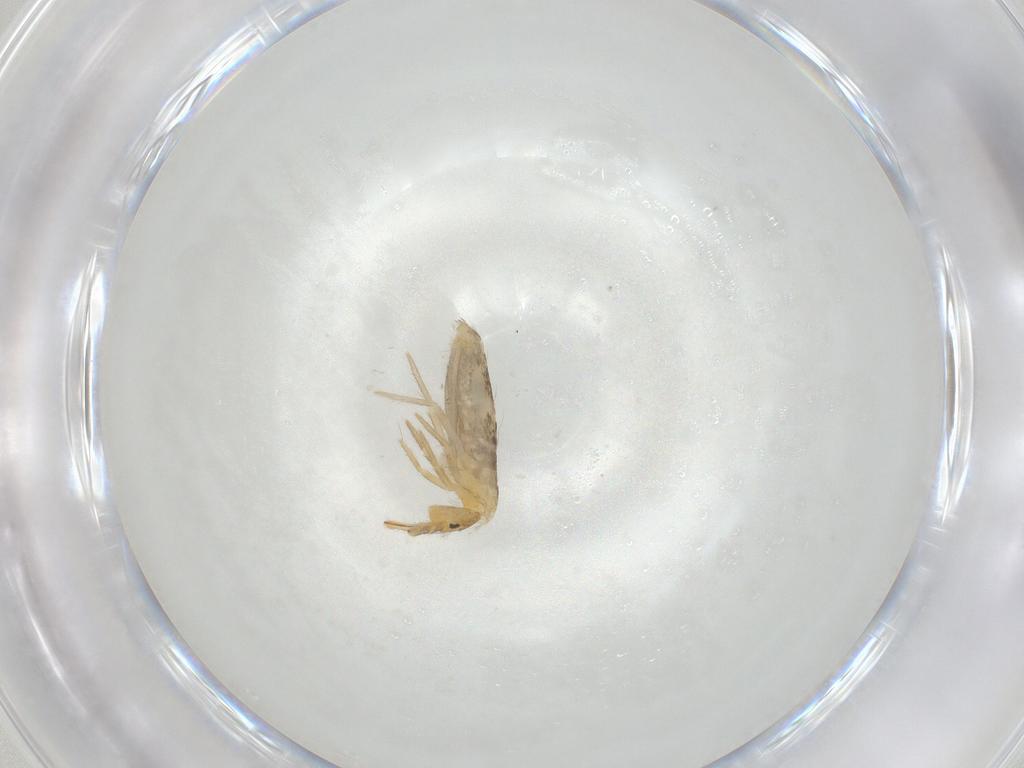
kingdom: Animalia
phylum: Arthropoda
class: Collembola
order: Entomobryomorpha
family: Entomobryidae
